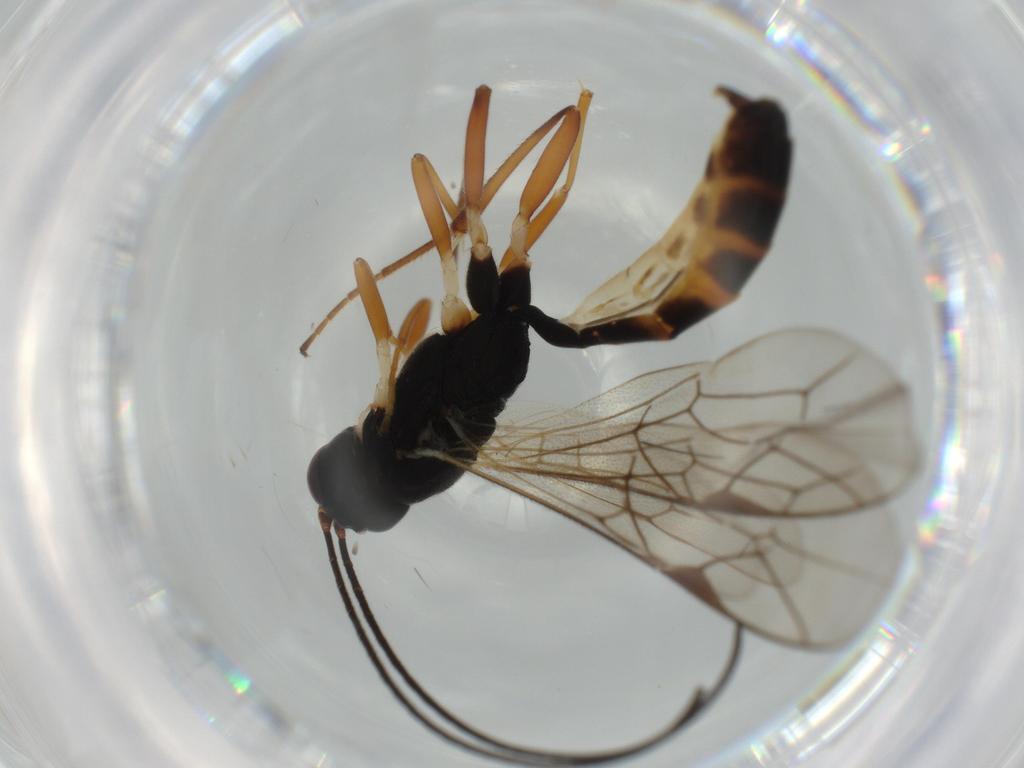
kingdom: Animalia
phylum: Arthropoda
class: Insecta
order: Hymenoptera
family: Ichneumonidae
